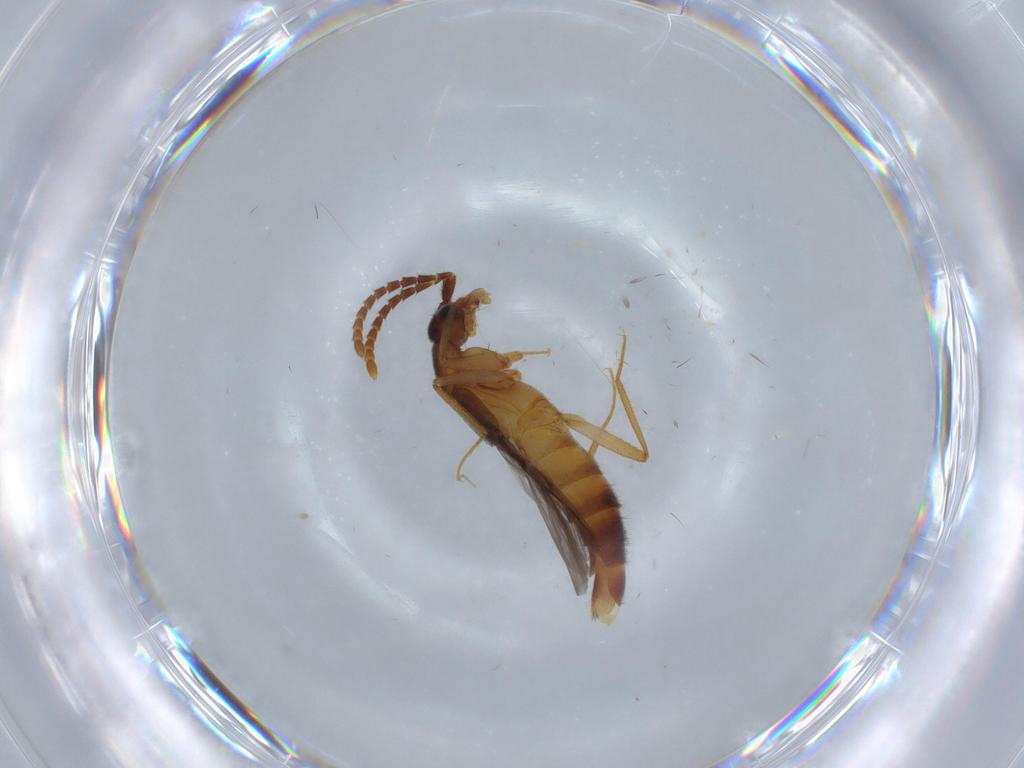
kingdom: Animalia
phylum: Arthropoda
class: Insecta
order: Coleoptera
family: Staphylinidae
